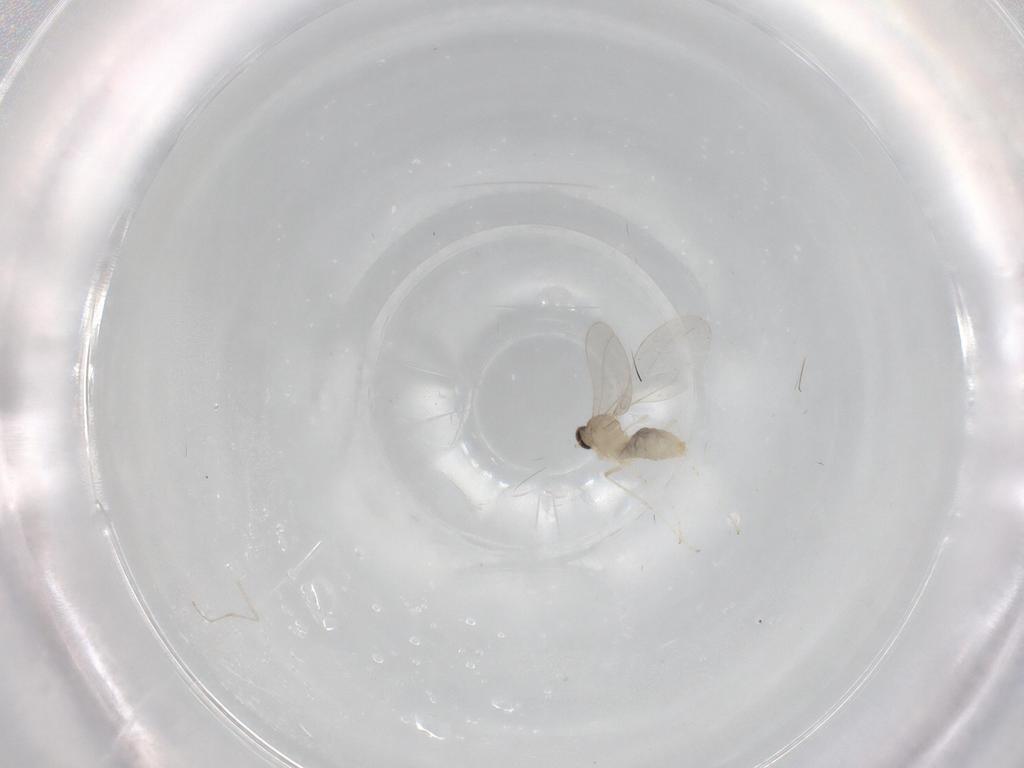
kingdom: Animalia
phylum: Arthropoda
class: Insecta
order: Diptera
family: Cecidomyiidae
